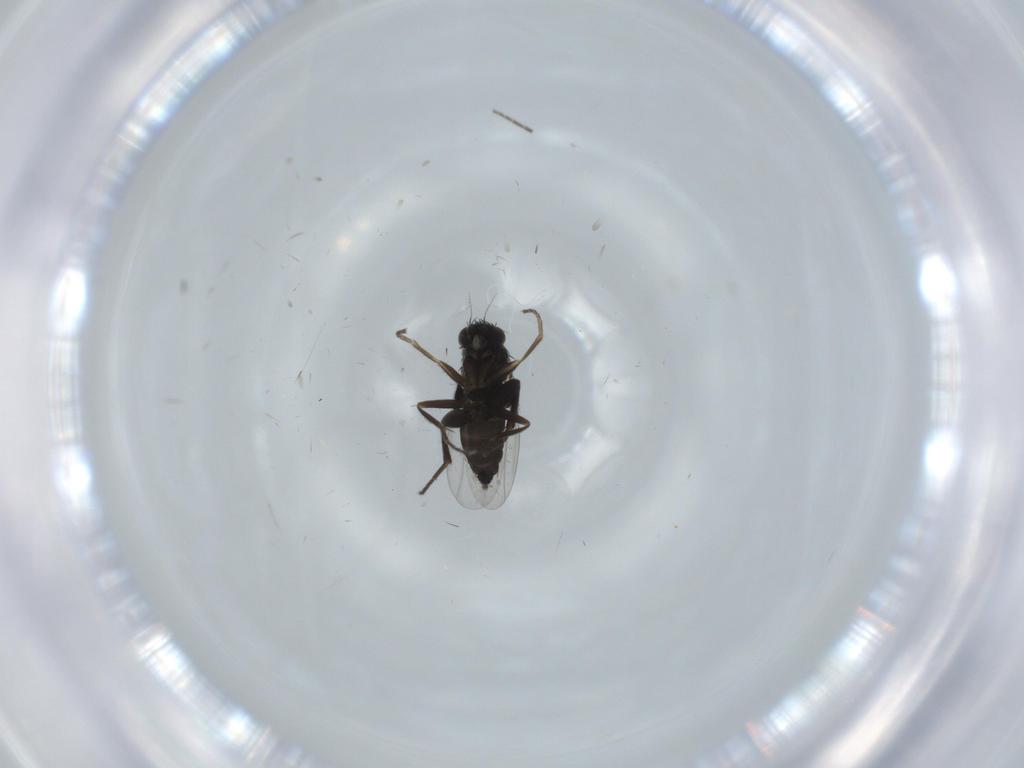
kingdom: Animalia
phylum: Arthropoda
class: Insecta
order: Diptera
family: Phoridae
